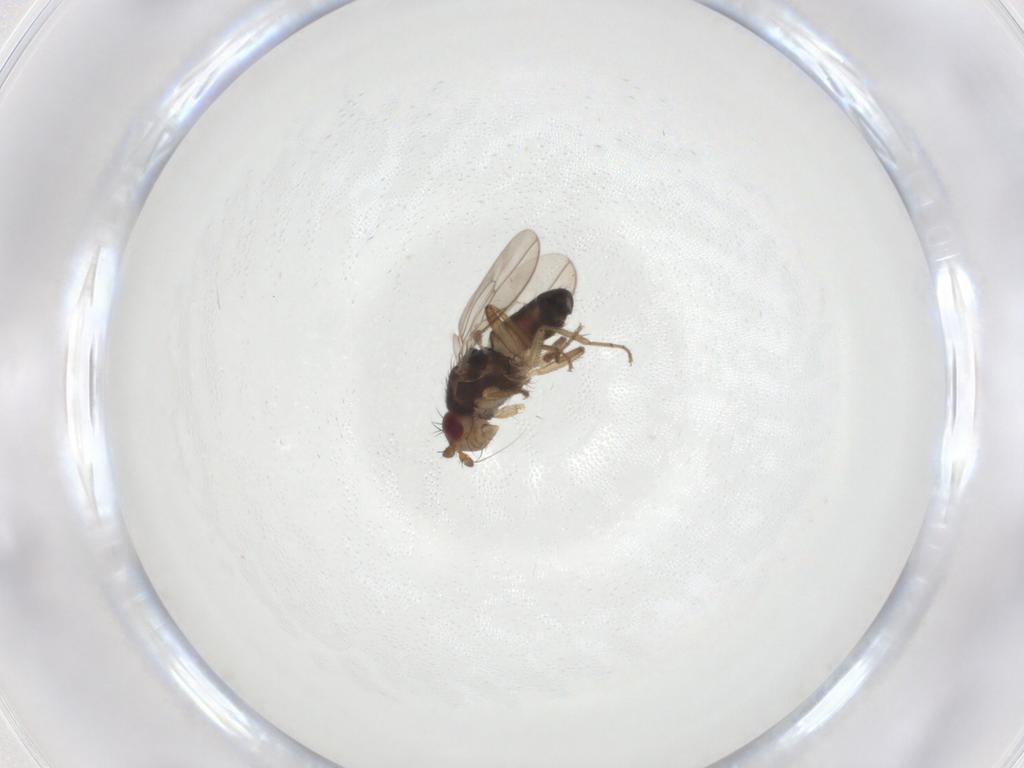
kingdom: Animalia
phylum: Arthropoda
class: Insecta
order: Diptera
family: Sphaeroceridae
